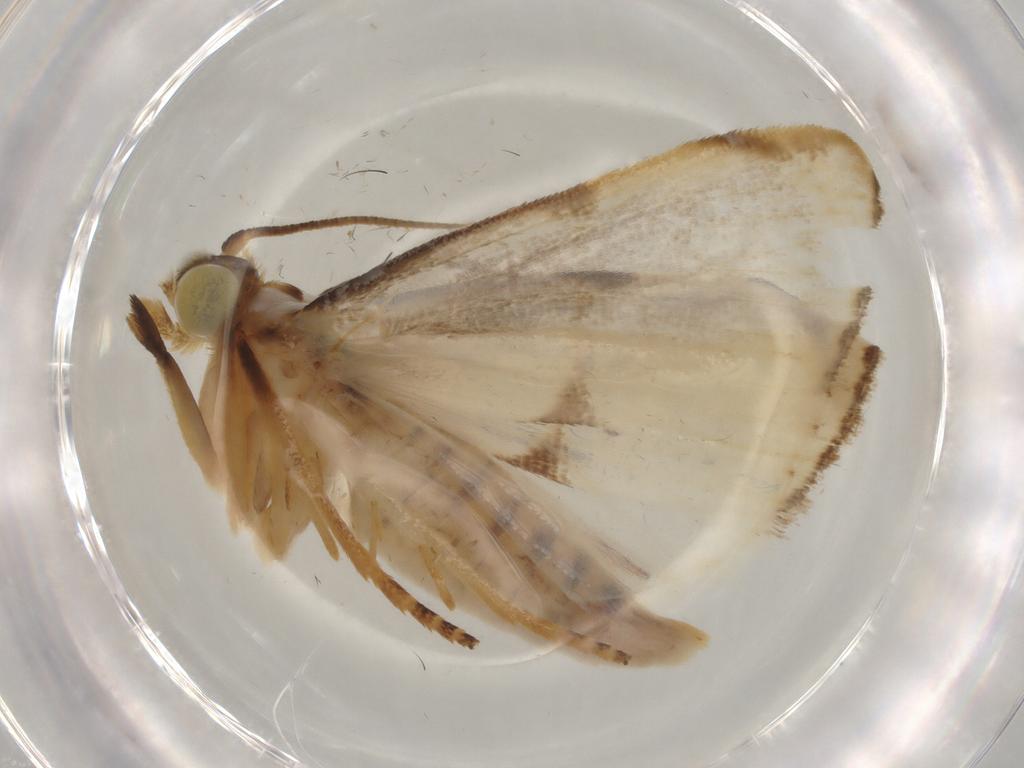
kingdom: Animalia
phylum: Arthropoda
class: Insecta
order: Lepidoptera
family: Crambidae
